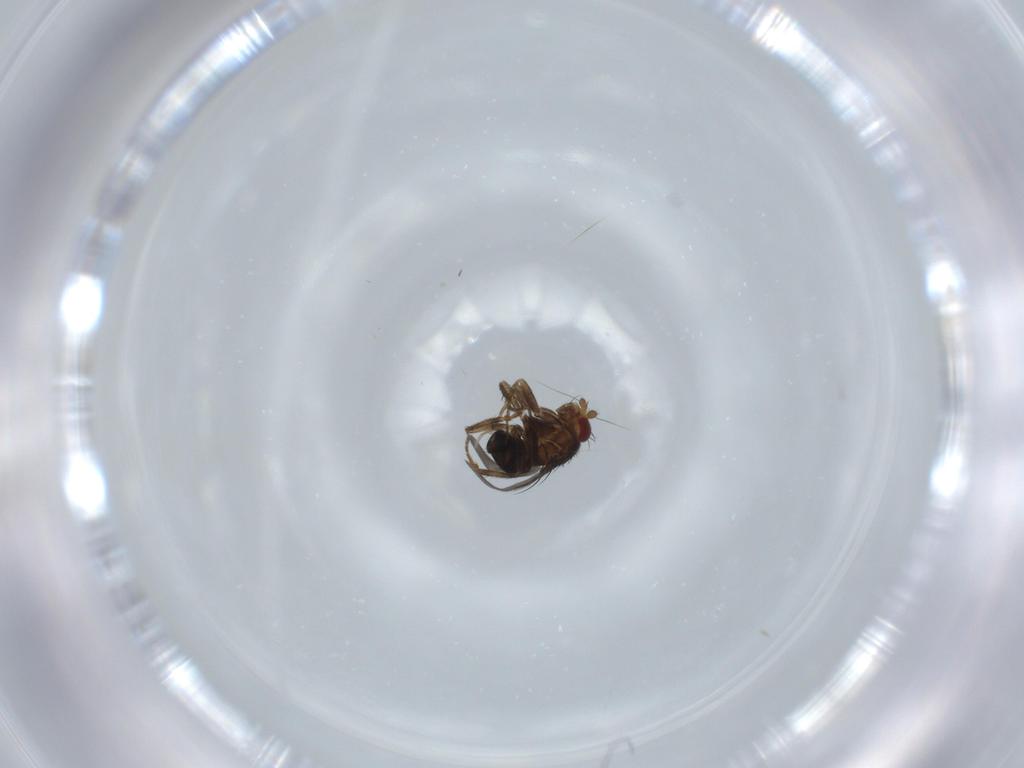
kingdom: Animalia
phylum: Arthropoda
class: Insecta
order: Diptera
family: Sphaeroceridae
